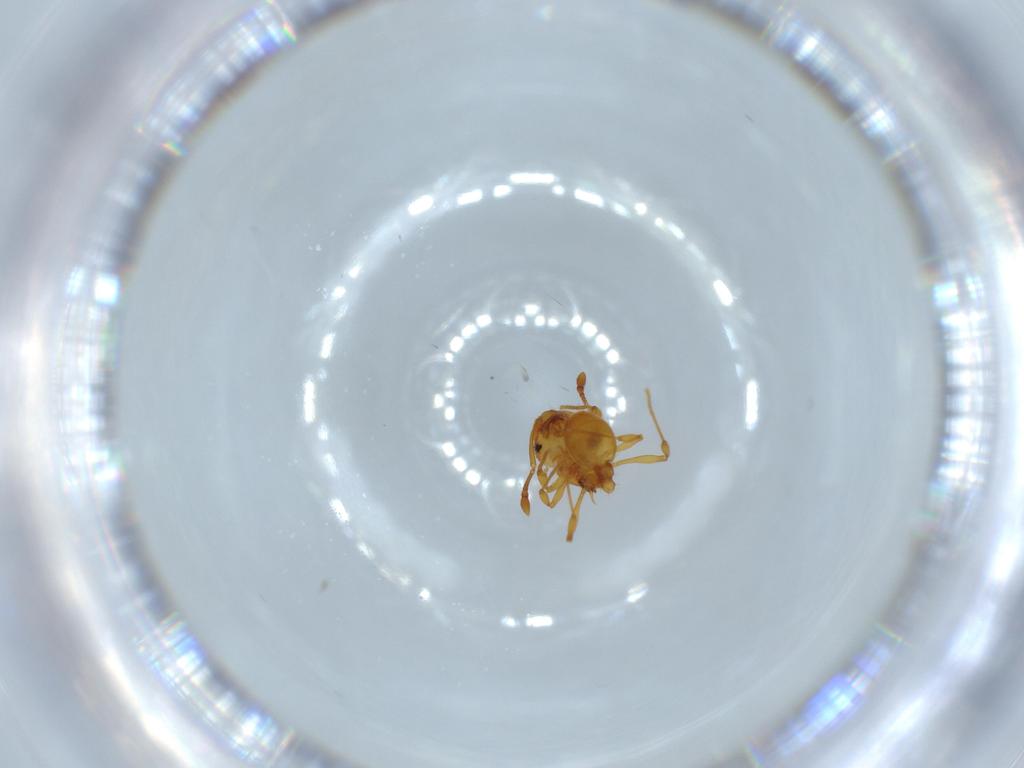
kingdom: Animalia
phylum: Arthropoda
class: Insecta
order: Hymenoptera
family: Formicidae
